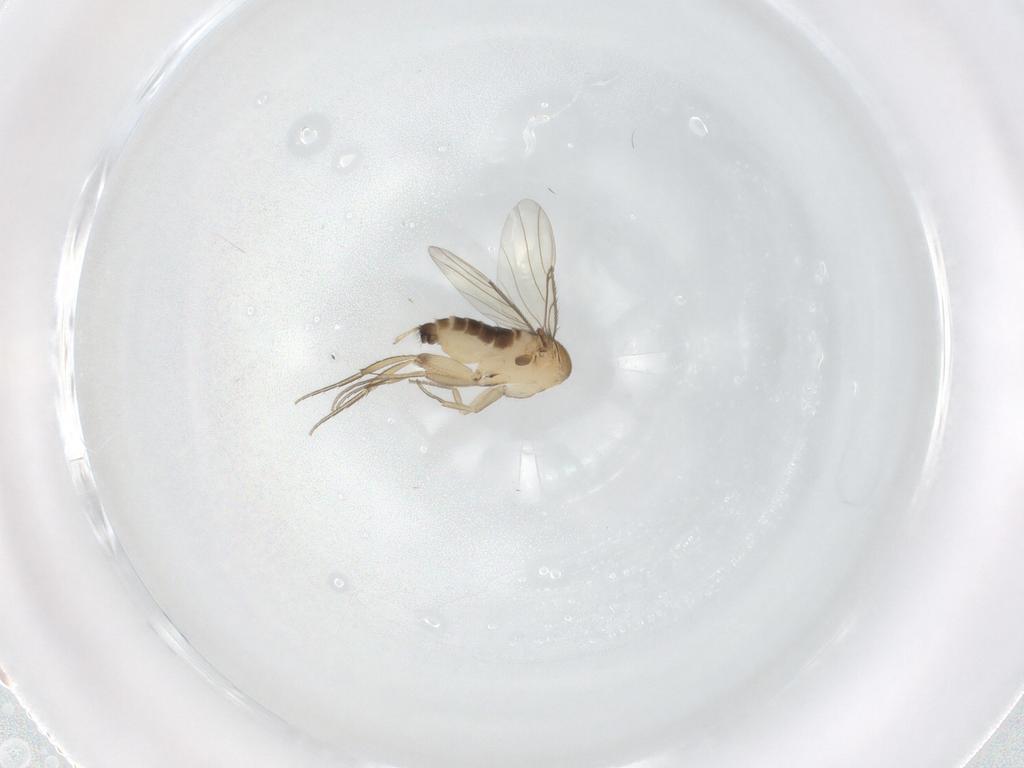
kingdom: Animalia
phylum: Arthropoda
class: Insecta
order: Diptera
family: Phoridae
